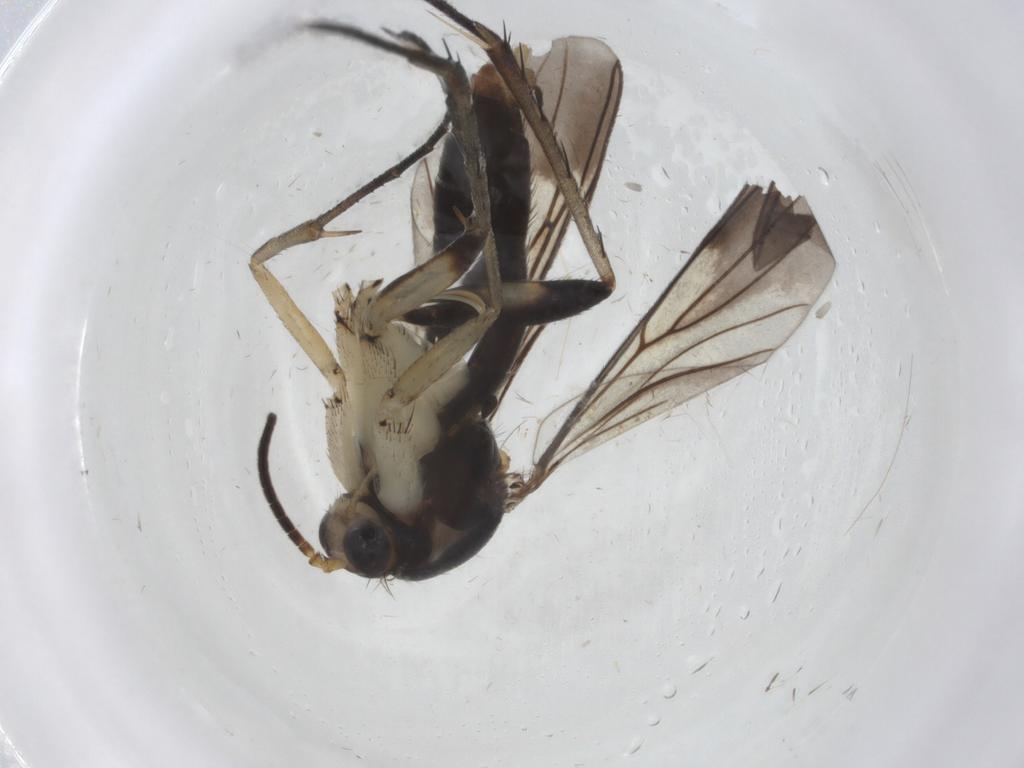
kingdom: Animalia
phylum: Arthropoda
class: Insecta
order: Diptera
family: Mycetophilidae
